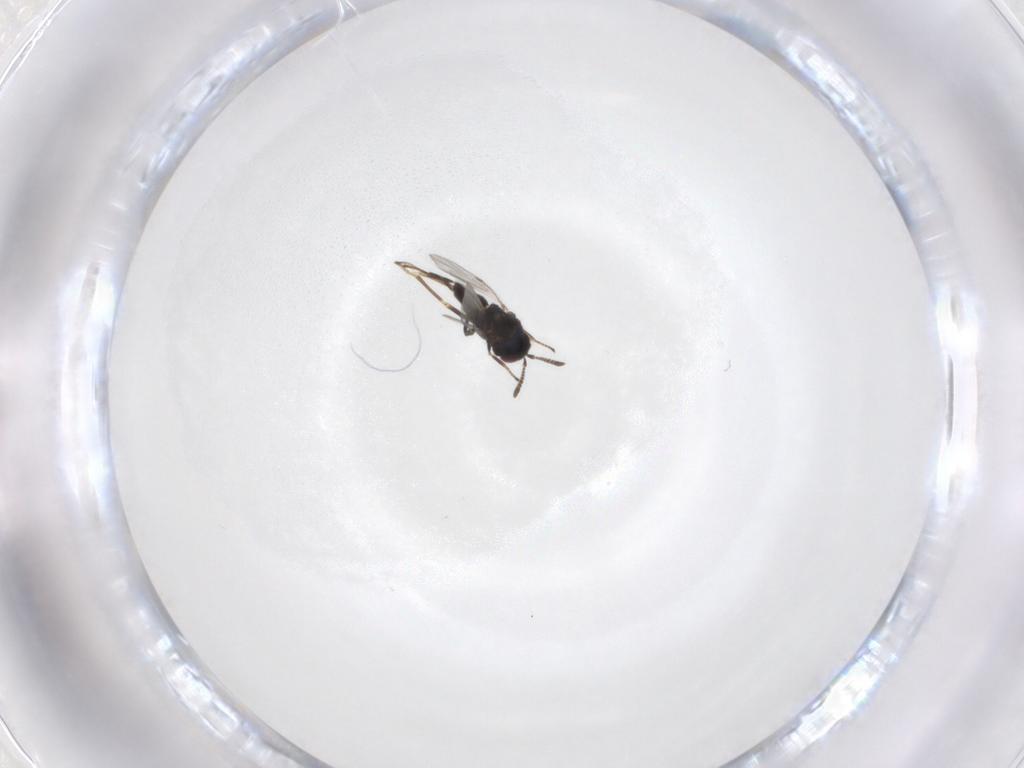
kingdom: Animalia
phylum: Arthropoda
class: Insecta
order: Hymenoptera
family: Encyrtidae
